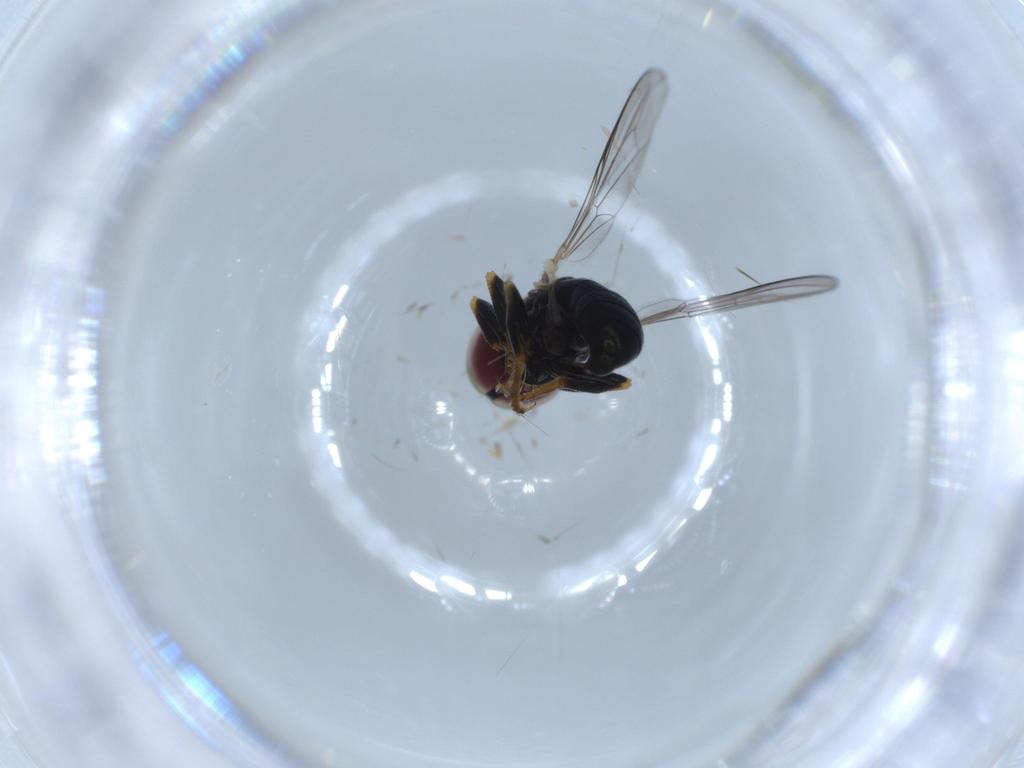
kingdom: Animalia
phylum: Arthropoda
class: Insecta
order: Diptera
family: Pipunculidae
